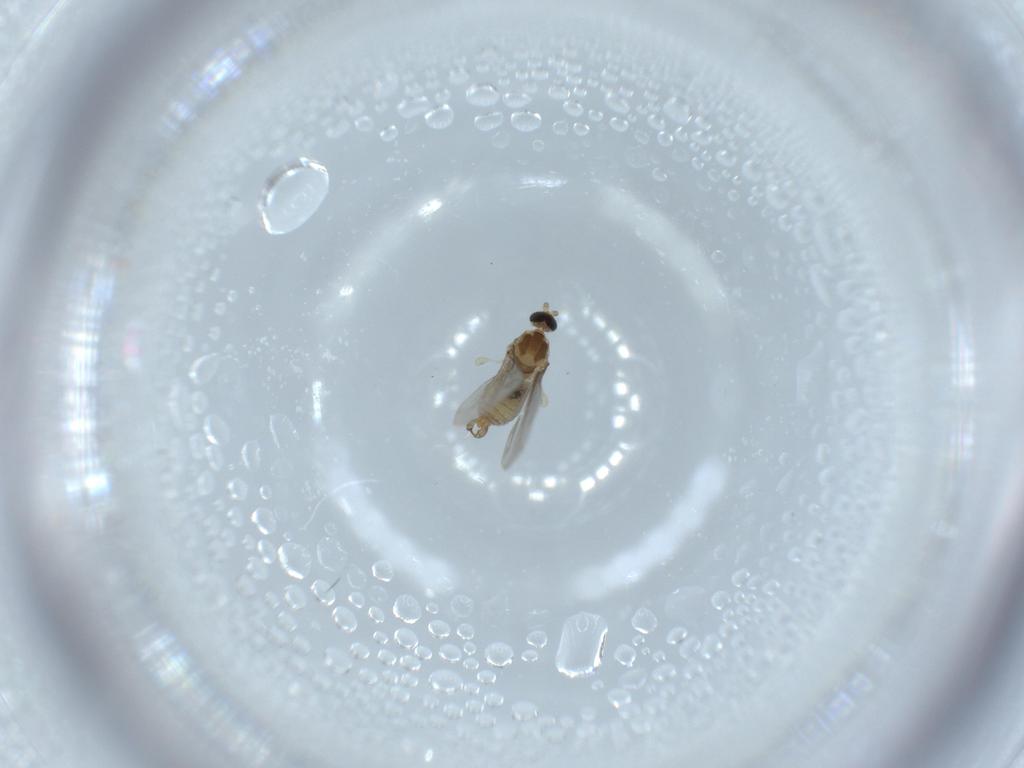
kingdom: Animalia
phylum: Arthropoda
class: Insecta
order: Diptera
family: Cecidomyiidae
